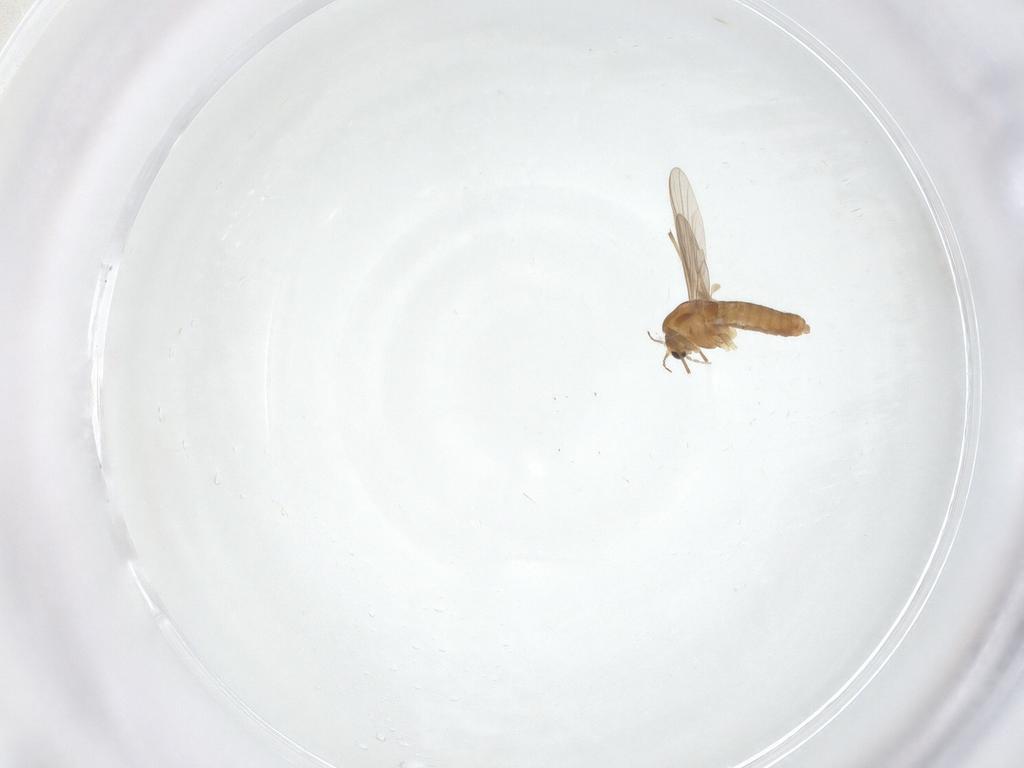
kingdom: Animalia
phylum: Arthropoda
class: Insecta
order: Diptera
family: Chironomidae
